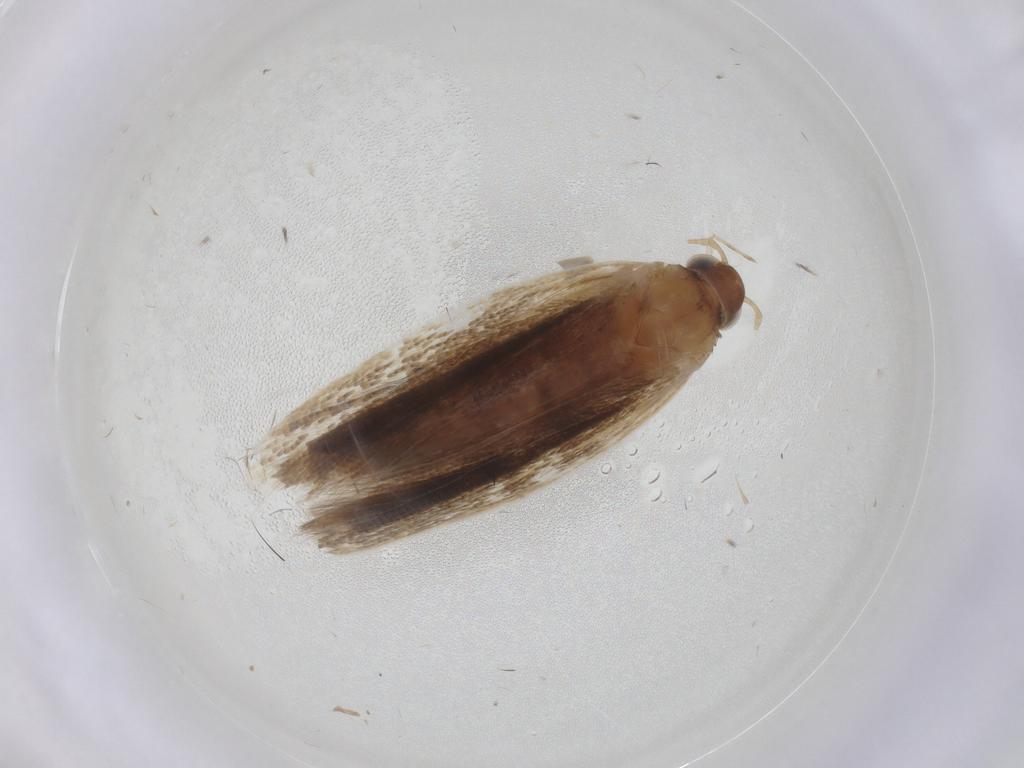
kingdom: Animalia
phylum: Arthropoda
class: Insecta
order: Lepidoptera
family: Gelechiidae
